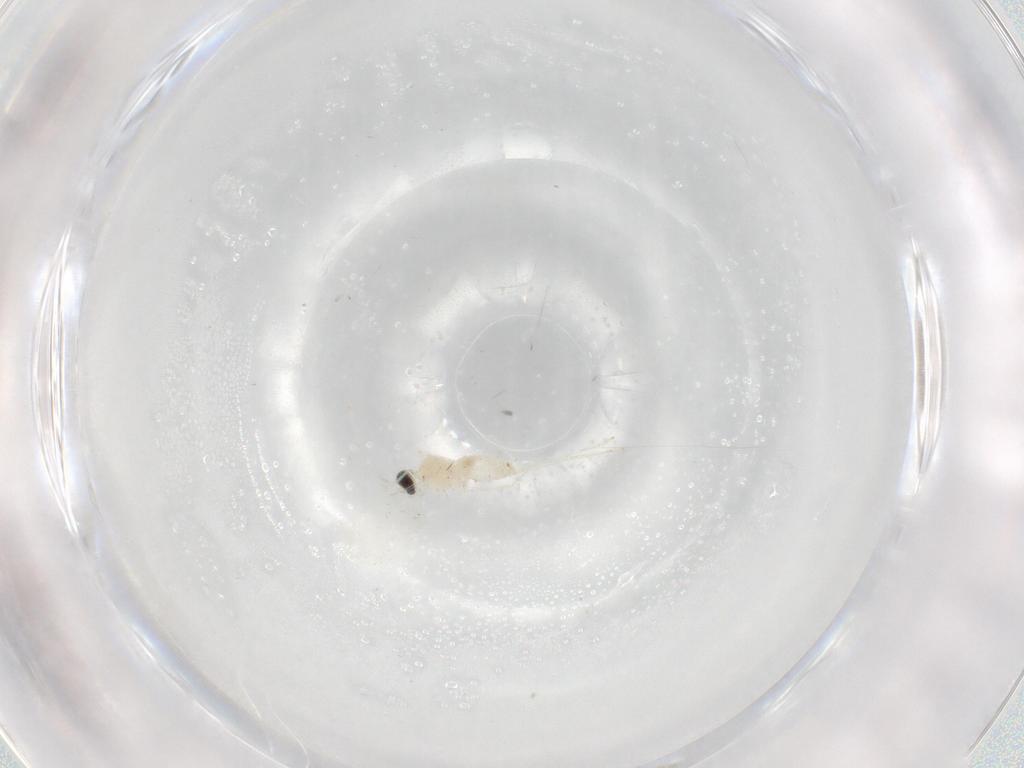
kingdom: Animalia
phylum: Arthropoda
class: Insecta
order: Diptera
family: Cecidomyiidae
